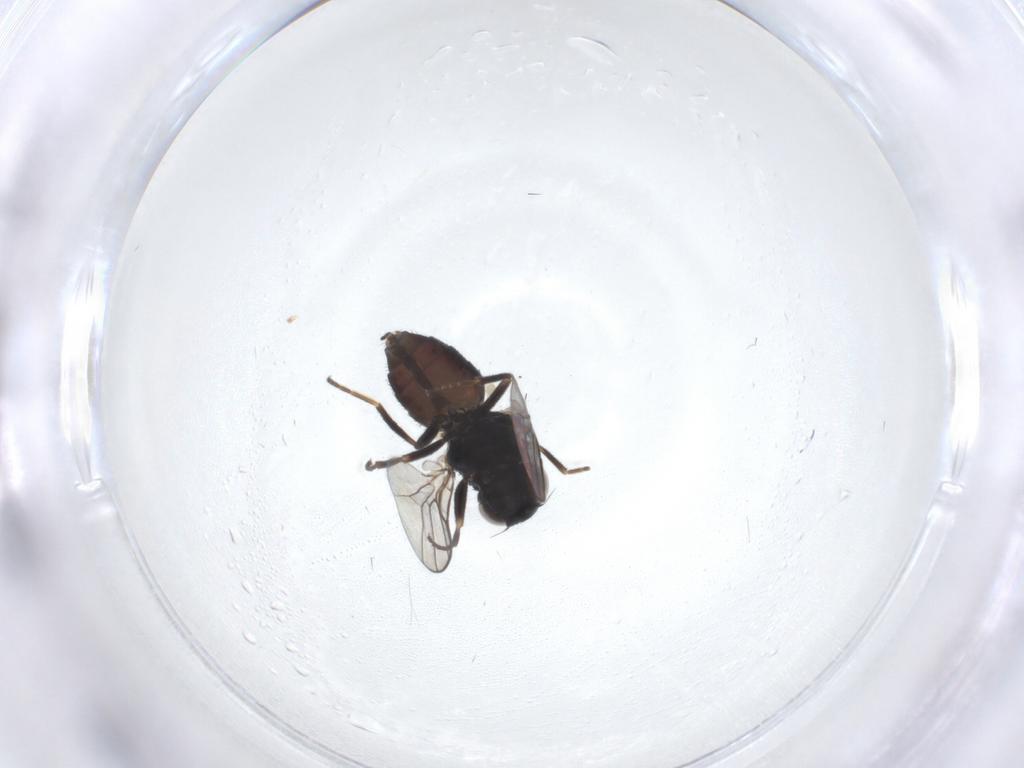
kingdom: Animalia
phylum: Arthropoda
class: Insecta
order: Diptera
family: Chloropidae
